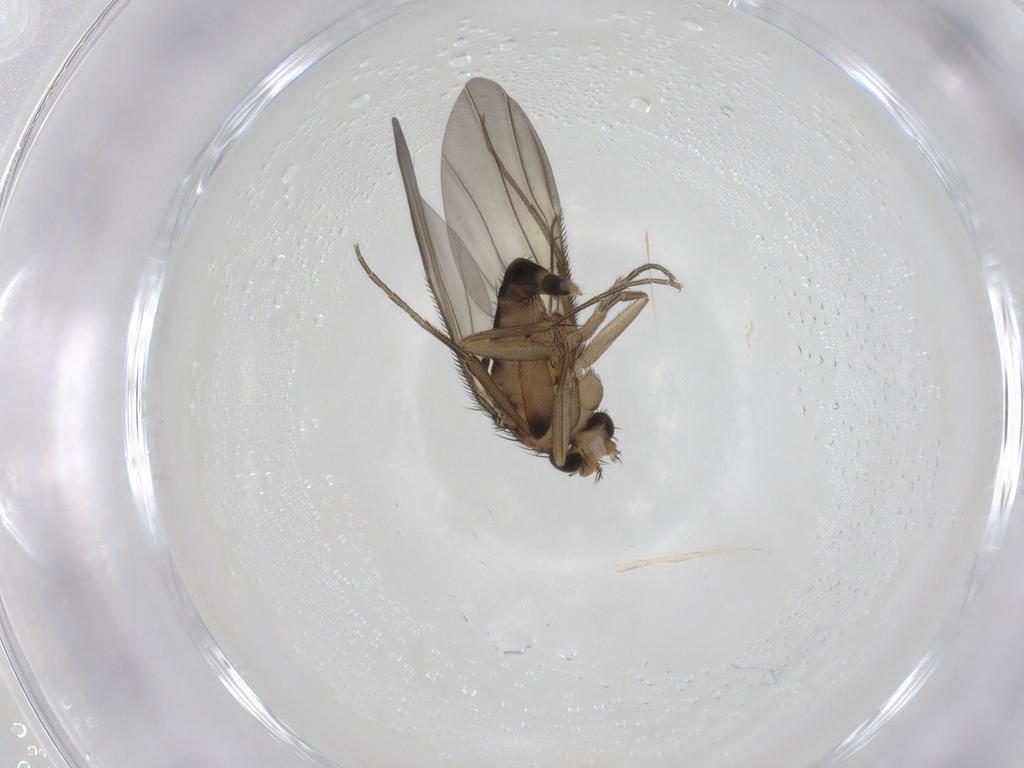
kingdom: Animalia
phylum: Arthropoda
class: Insecta
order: Diptera
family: Phoridae
